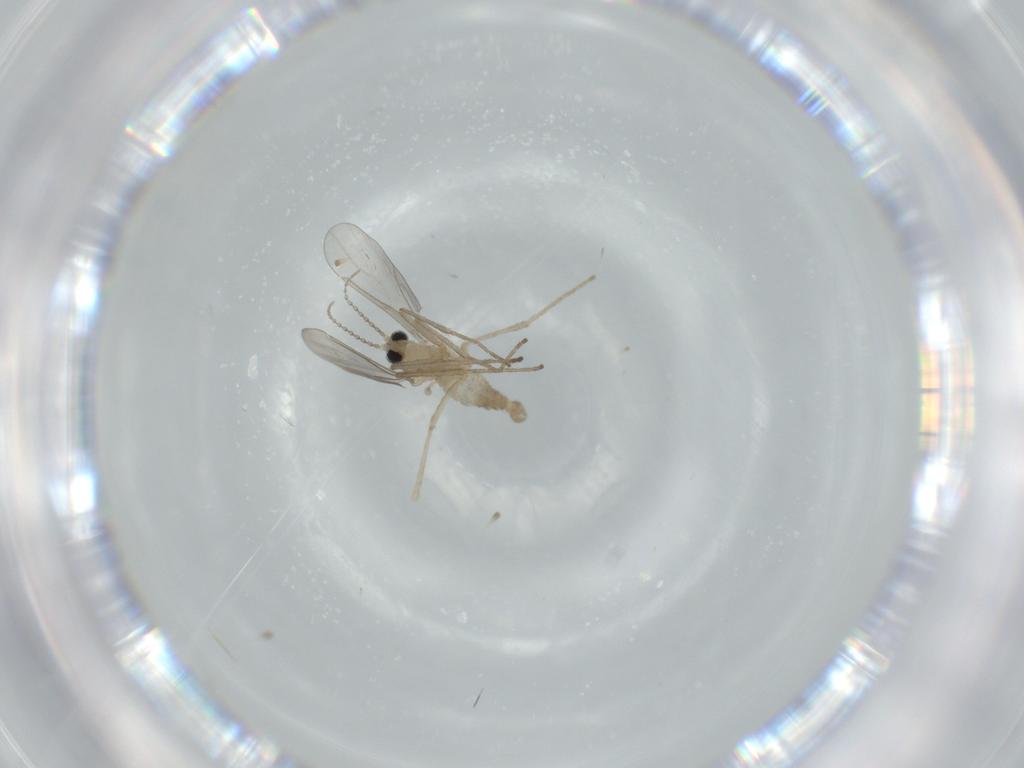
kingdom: Animalia
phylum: Arthropoda
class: Insecta
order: Diptera
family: Cecidomyiidae
